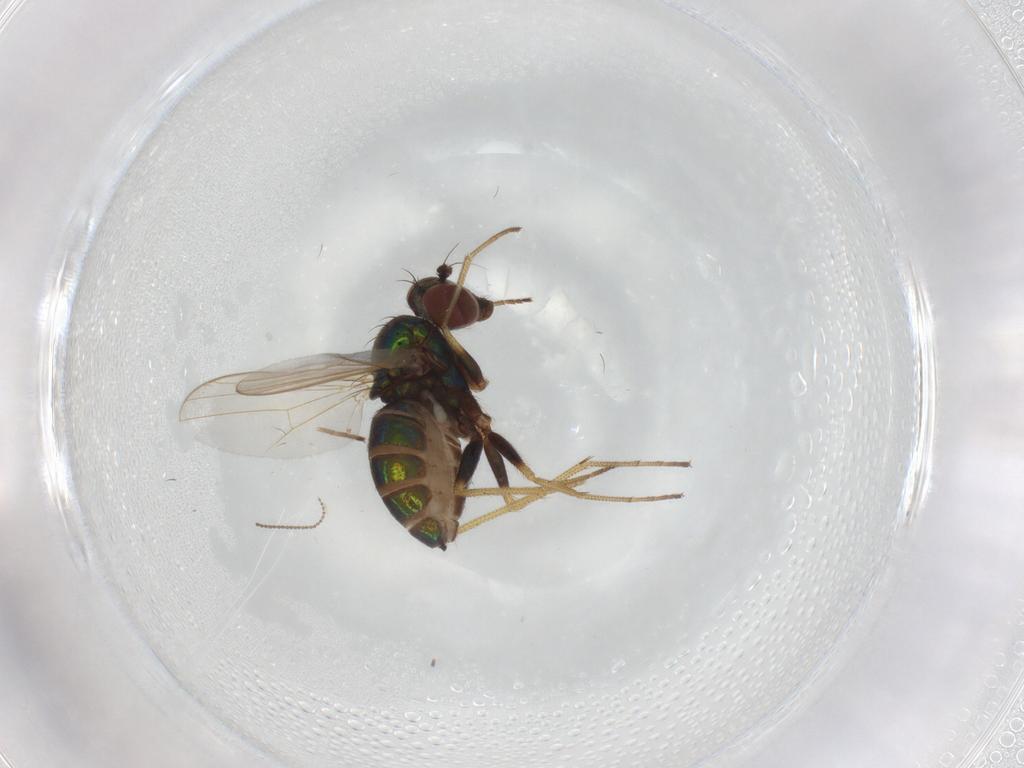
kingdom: Animalia
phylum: Arthropoda
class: Insecta
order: Diptera
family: Dolichopodidae
